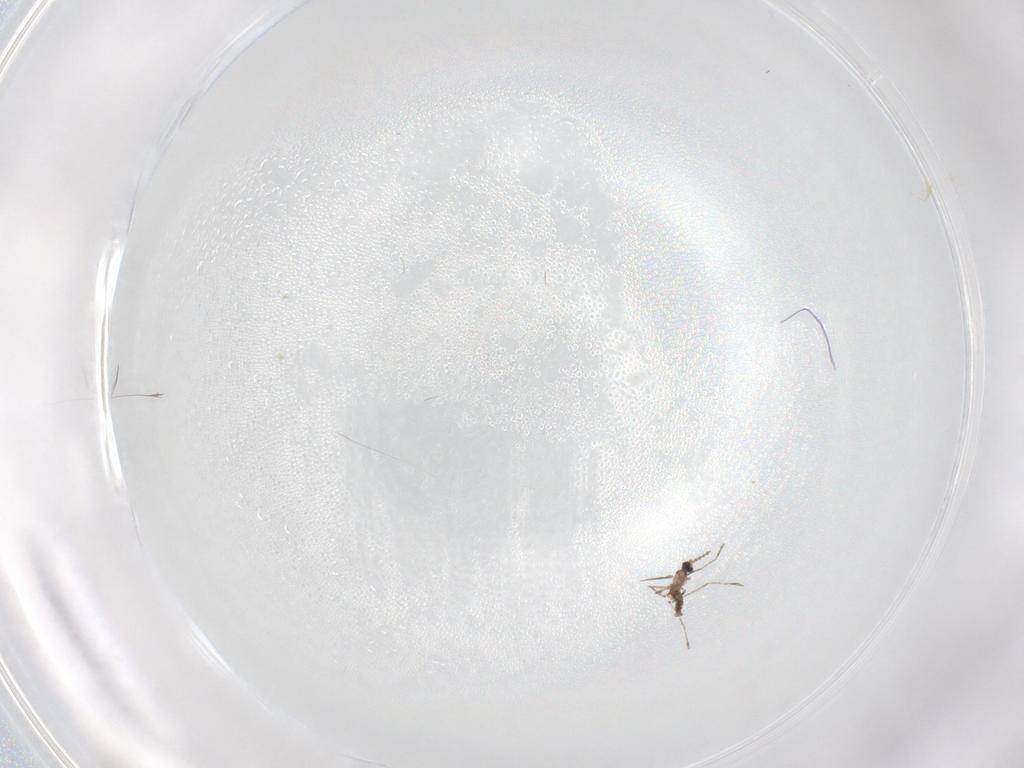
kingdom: Animalia
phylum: Arthropoda
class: Insecta
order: Diptera
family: Cecidomyiidae
